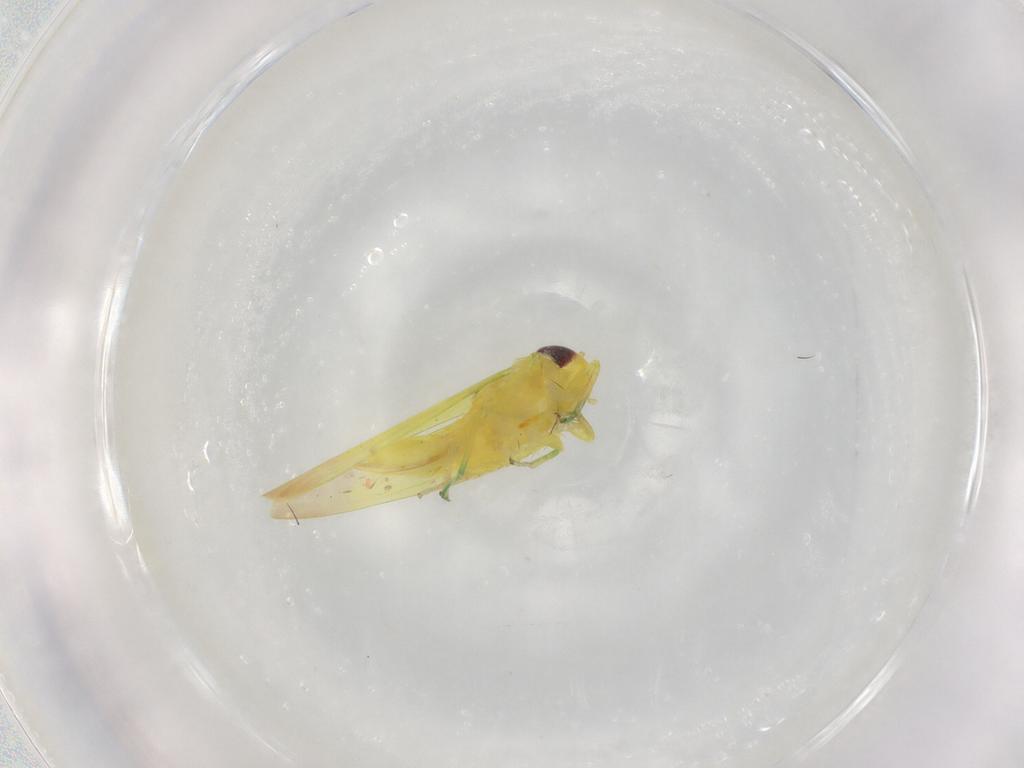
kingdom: Animalia
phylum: Arthropoda
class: Insecta
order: Hemiptera
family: Cicadellidae
